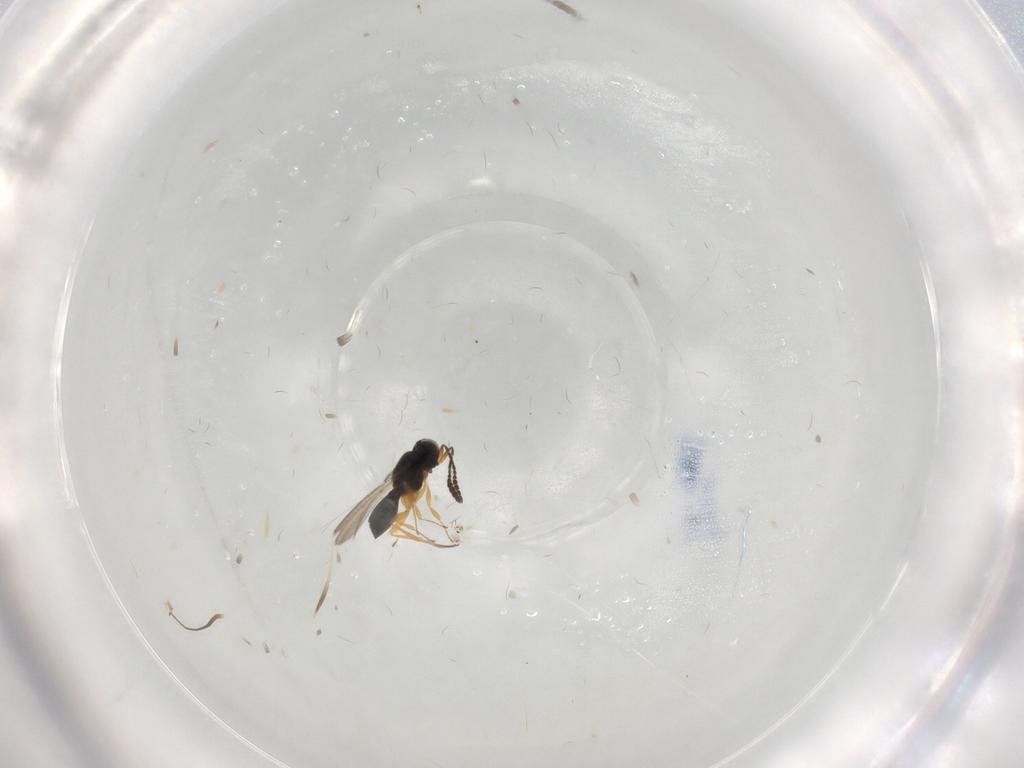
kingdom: Animalia
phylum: Arthropoda
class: Insecta
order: Hymenoptera
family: Scelionidae
